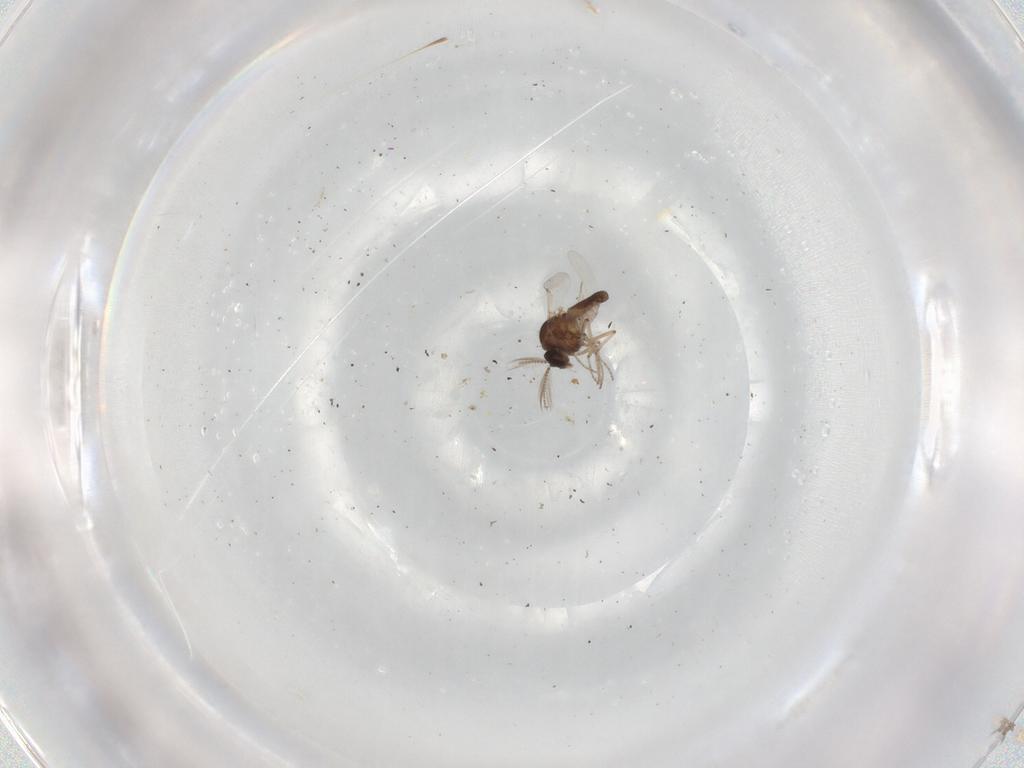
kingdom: Animalia
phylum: Arthropoda
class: Insecta
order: Diptera
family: Ceratopogonidae
